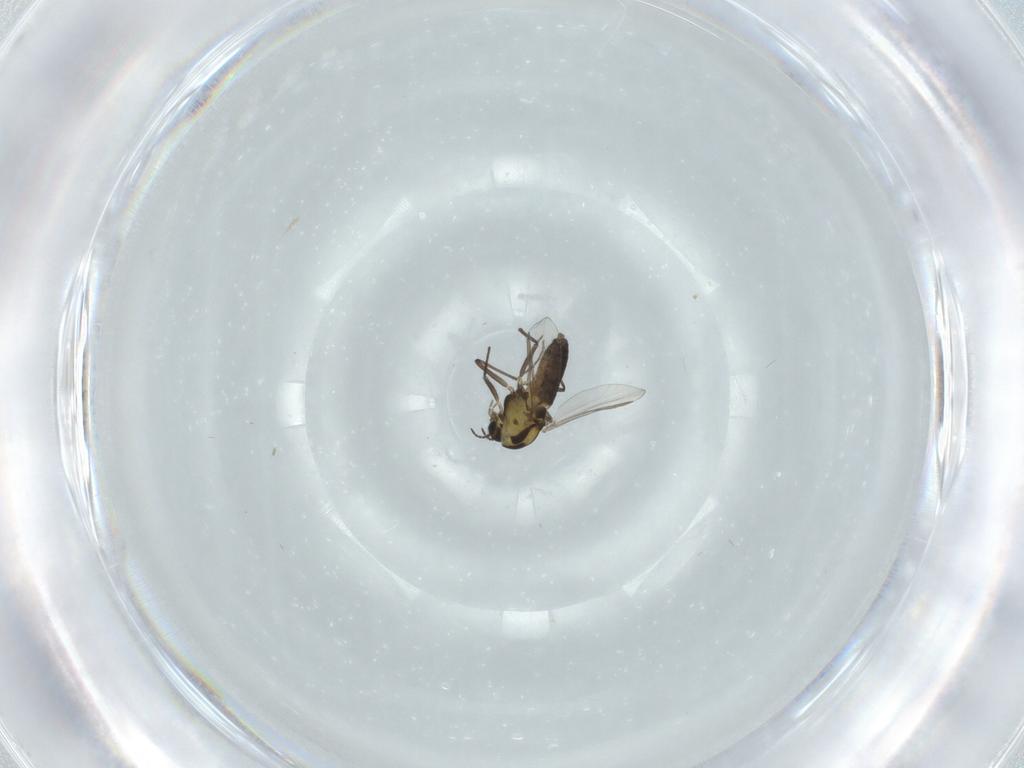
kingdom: Animalia
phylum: Arthropoda
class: Insecta
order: Diptera
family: Chironomidae
